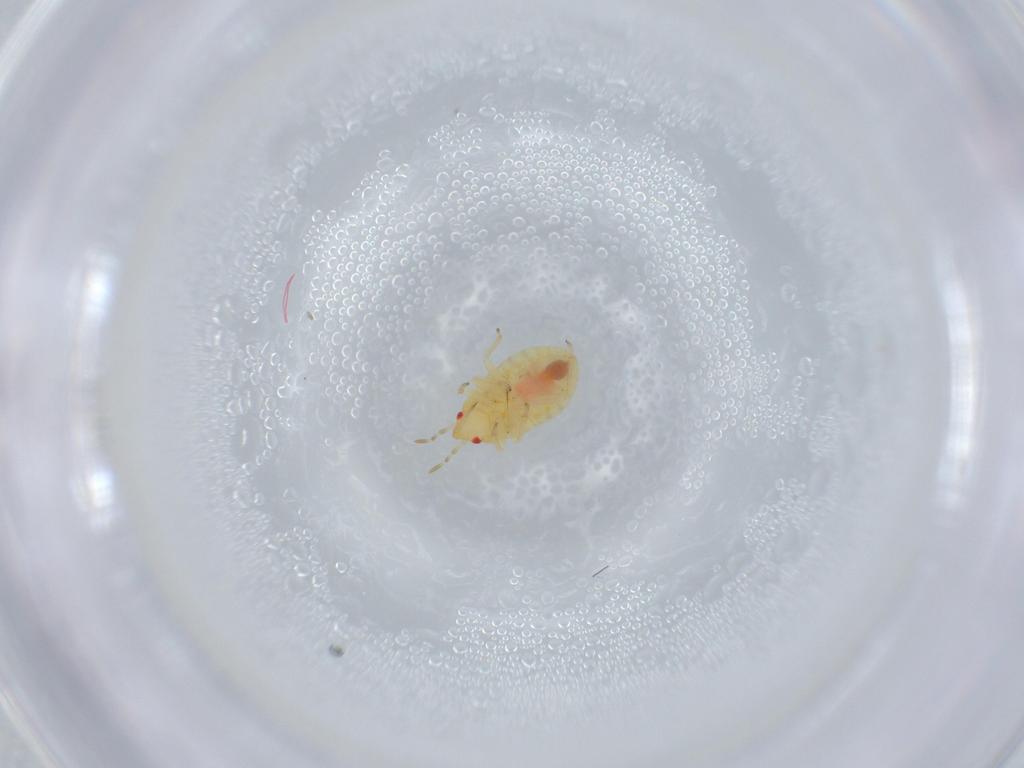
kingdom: Animalia
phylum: Arthropoda
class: Insecta
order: Hemiptera
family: Anthocoridae
